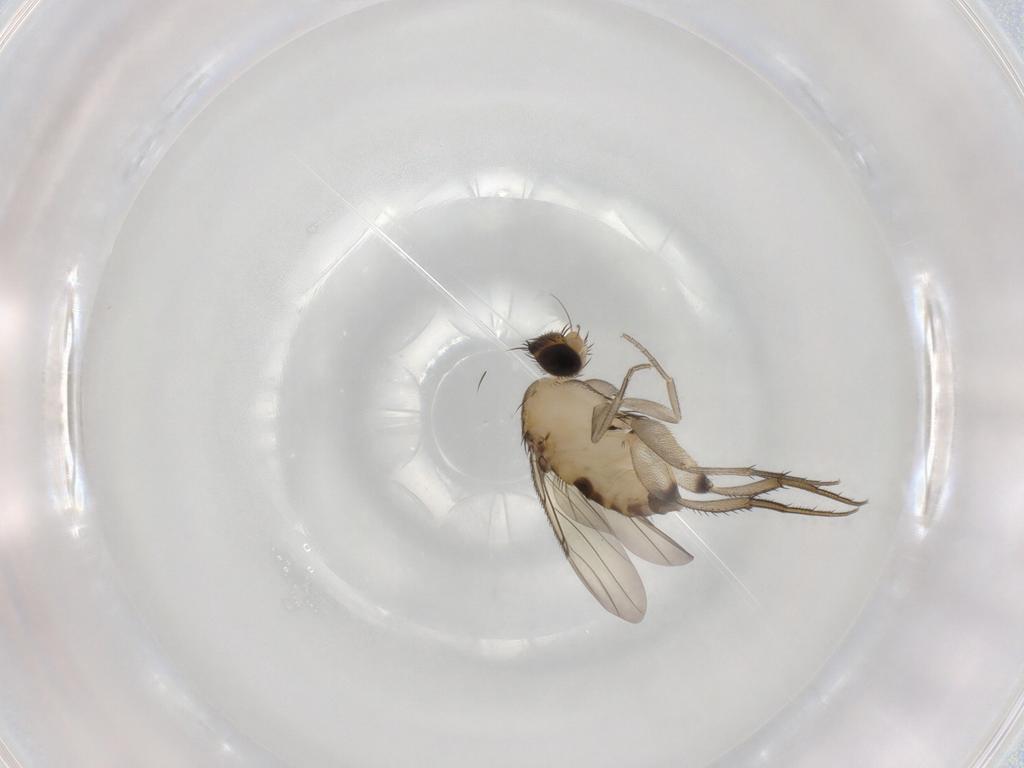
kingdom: Animalia
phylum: Arthropoda
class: Insecta
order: Diptera
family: Phoridae
